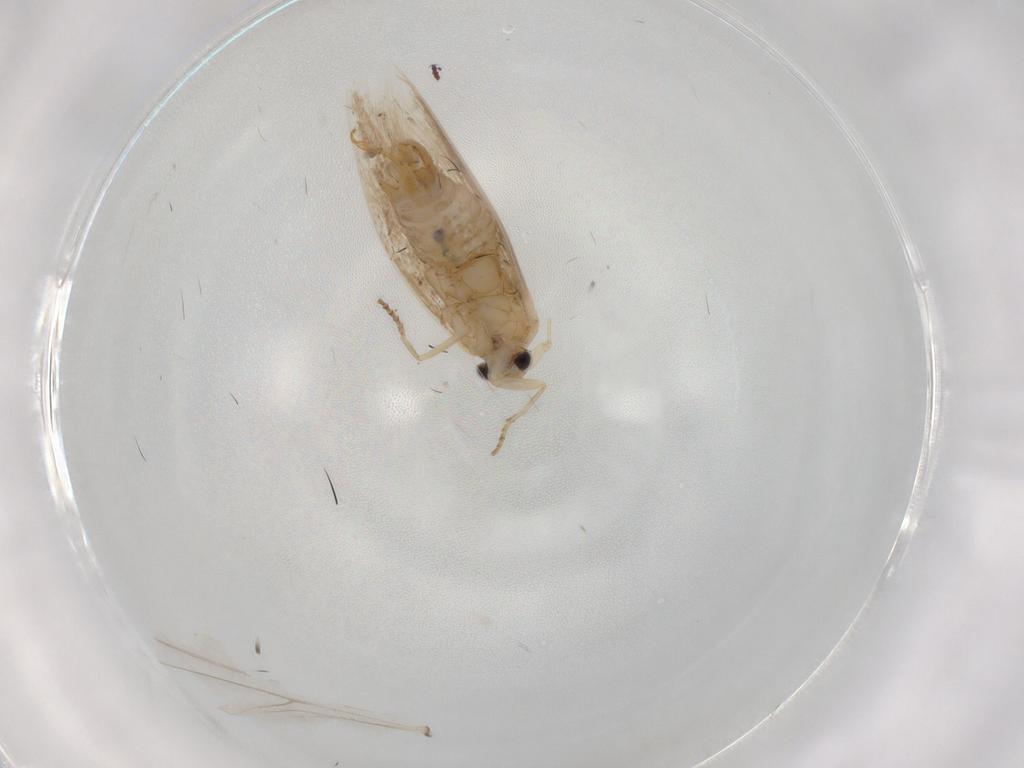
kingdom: Animalia
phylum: Arthropoda
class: Insecta
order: Lepidoptera
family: Bucculatricidae
